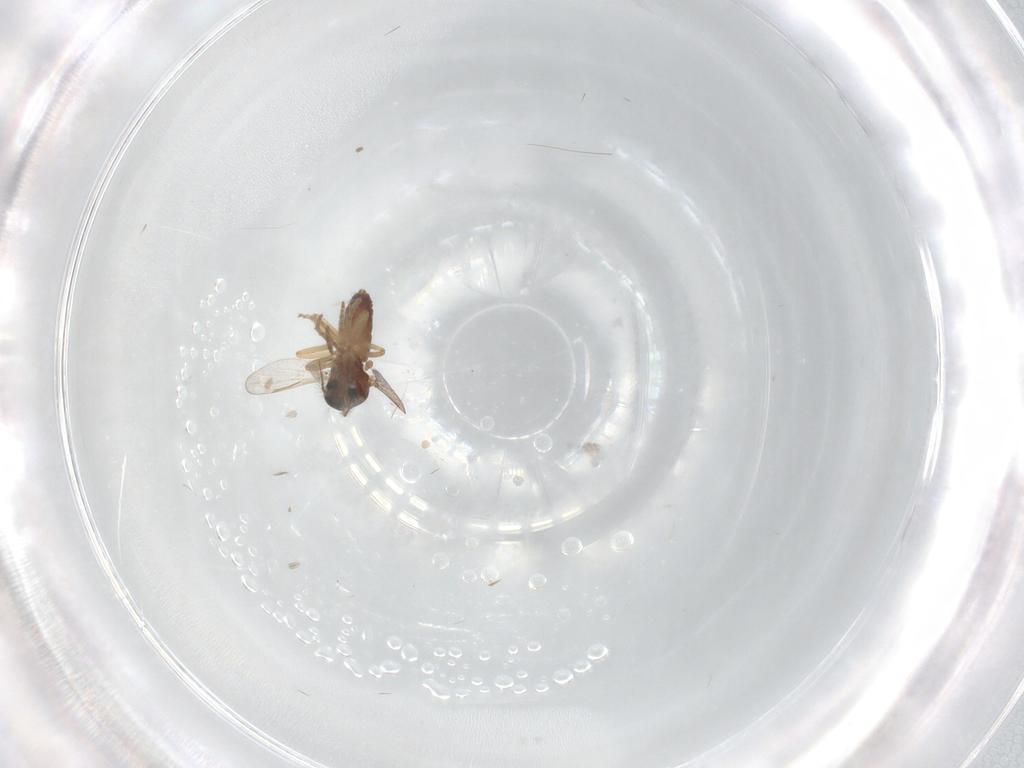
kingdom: Animalia
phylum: Arthropoda
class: Insecta
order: Diptera
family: Ceratopogonidae
